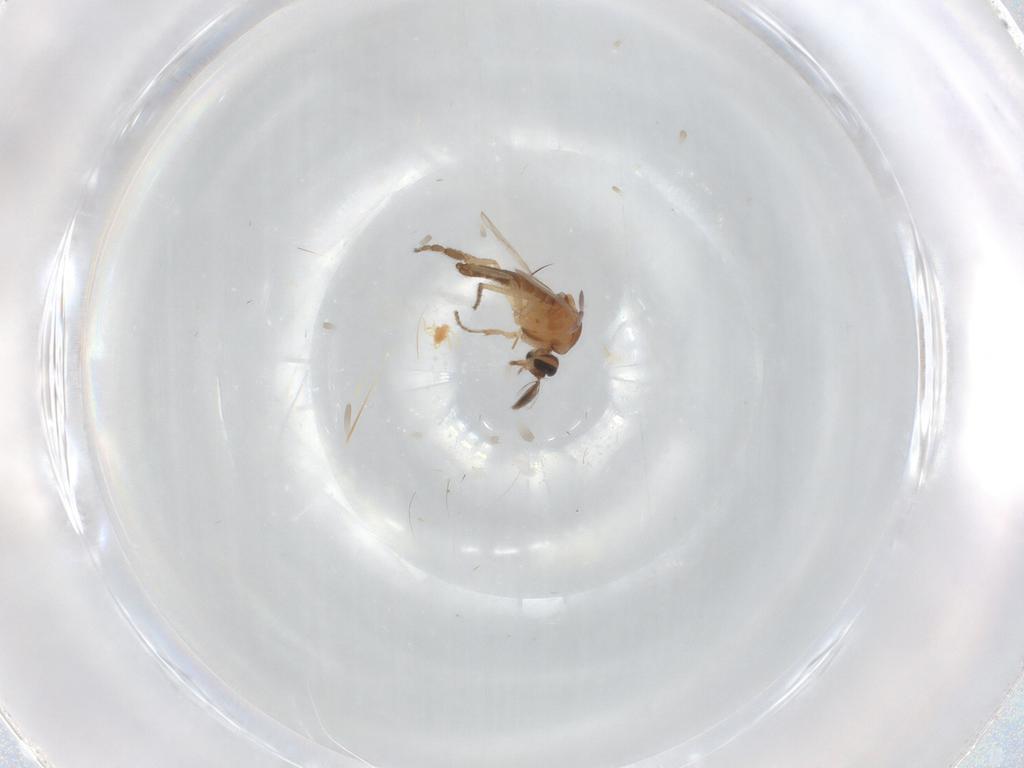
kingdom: Animalia
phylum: Arthropoda
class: Insecta
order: Diptera
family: Ceratopogonidae
